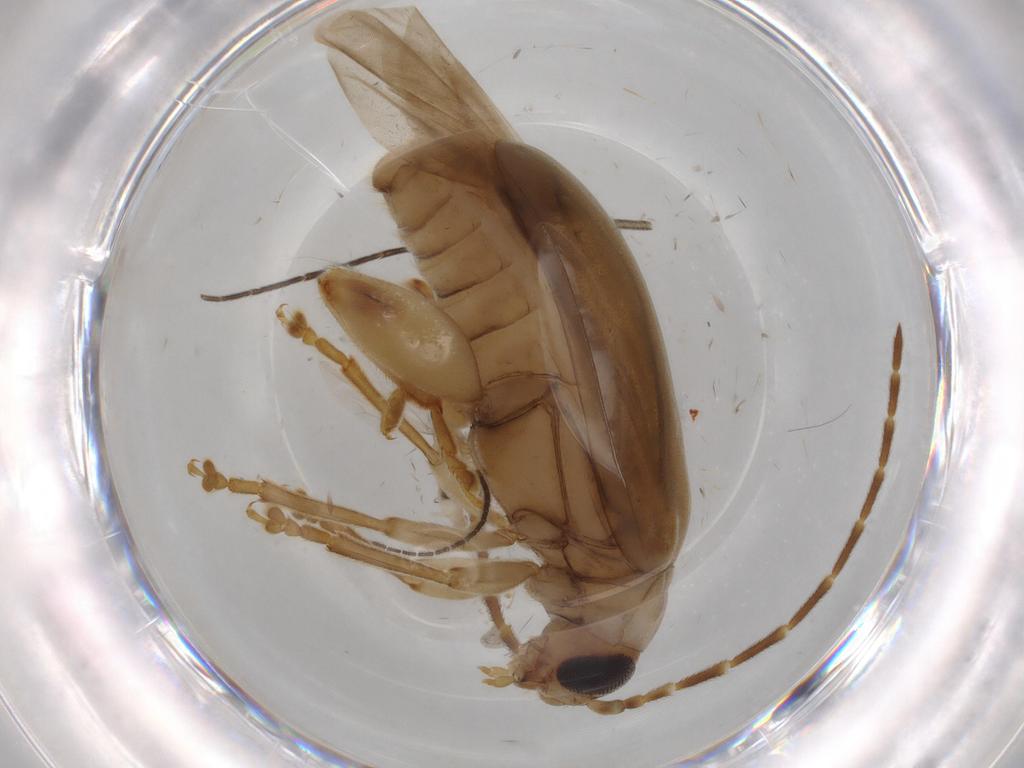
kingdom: Animalia
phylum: Arthropoda
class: Insecta
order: Coleoptera
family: Chrysomelidae
